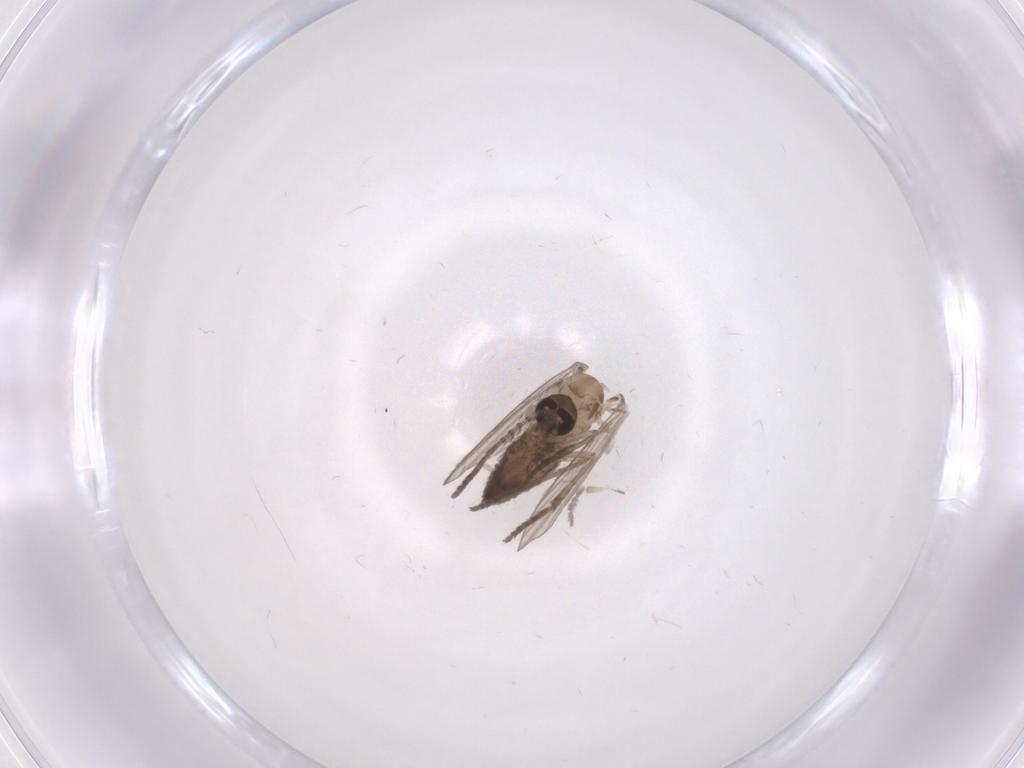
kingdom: Animalia
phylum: Arthropoda
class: Insecta
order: Diptera
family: Psychodidae
